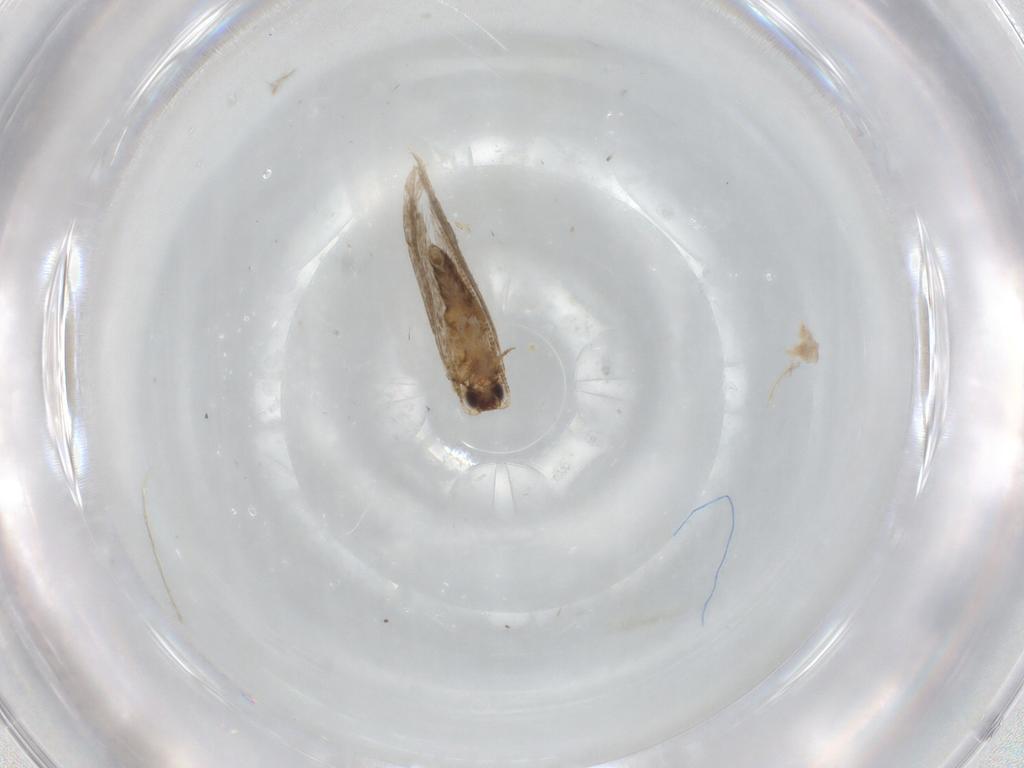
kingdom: Animalia
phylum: Arthropoda
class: Insecta
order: Lepidoptera
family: Tineidae
